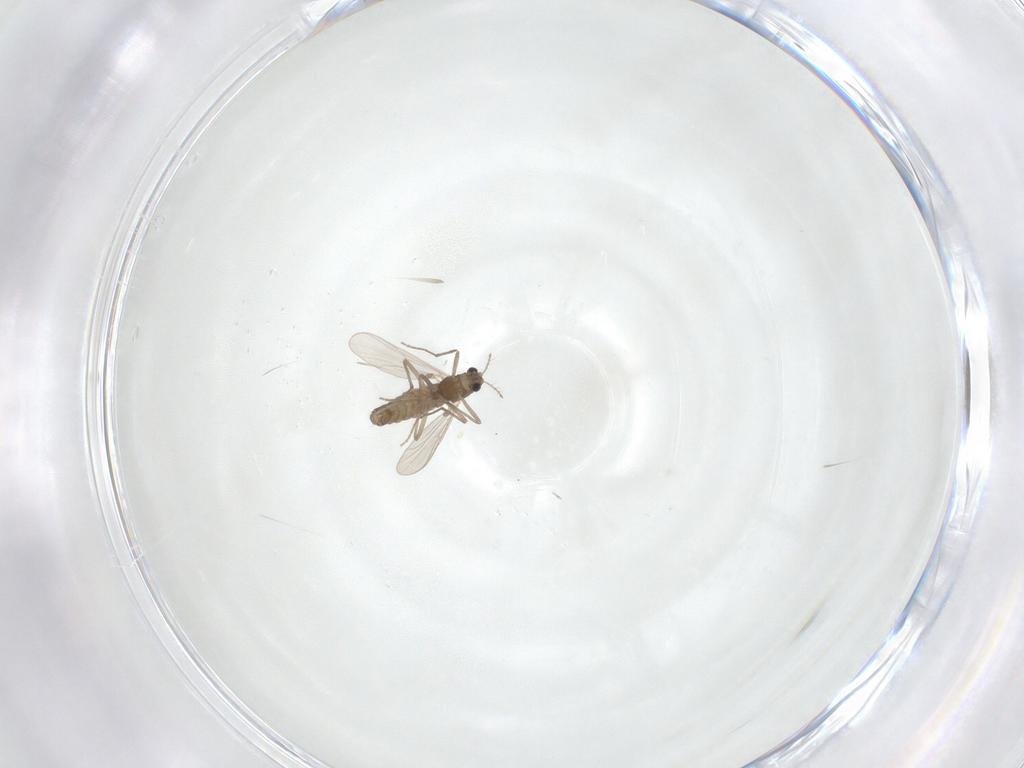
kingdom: Animalia
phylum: Arthropoda
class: Insecta
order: Diptera
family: Chironomidae
